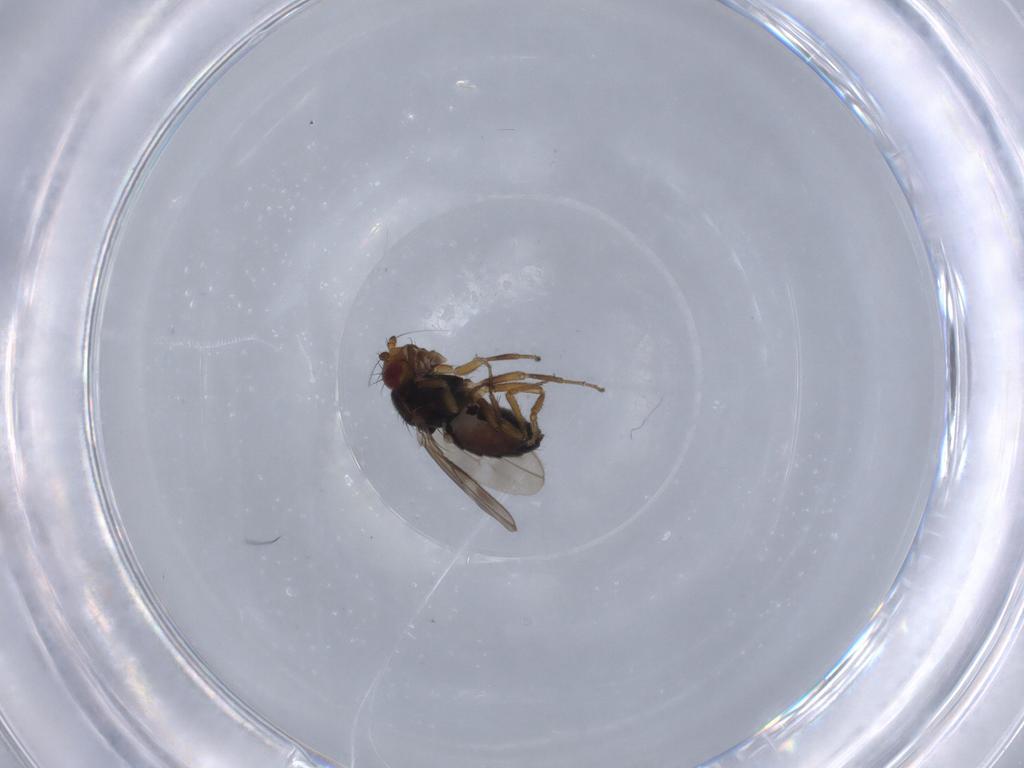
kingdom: Animalia
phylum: Arthropoda
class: Insecta
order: Diptera
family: Sphaeroceridae
